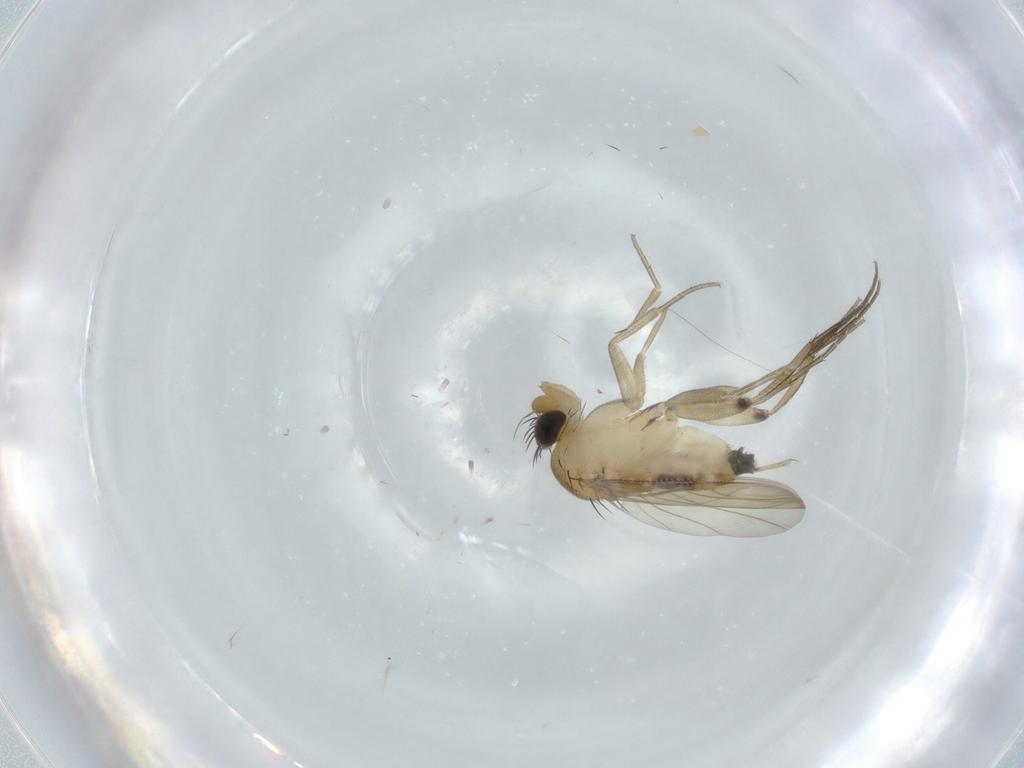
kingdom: Animalia
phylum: Arthropoda
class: Insecta
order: Diptera
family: Phoridae
